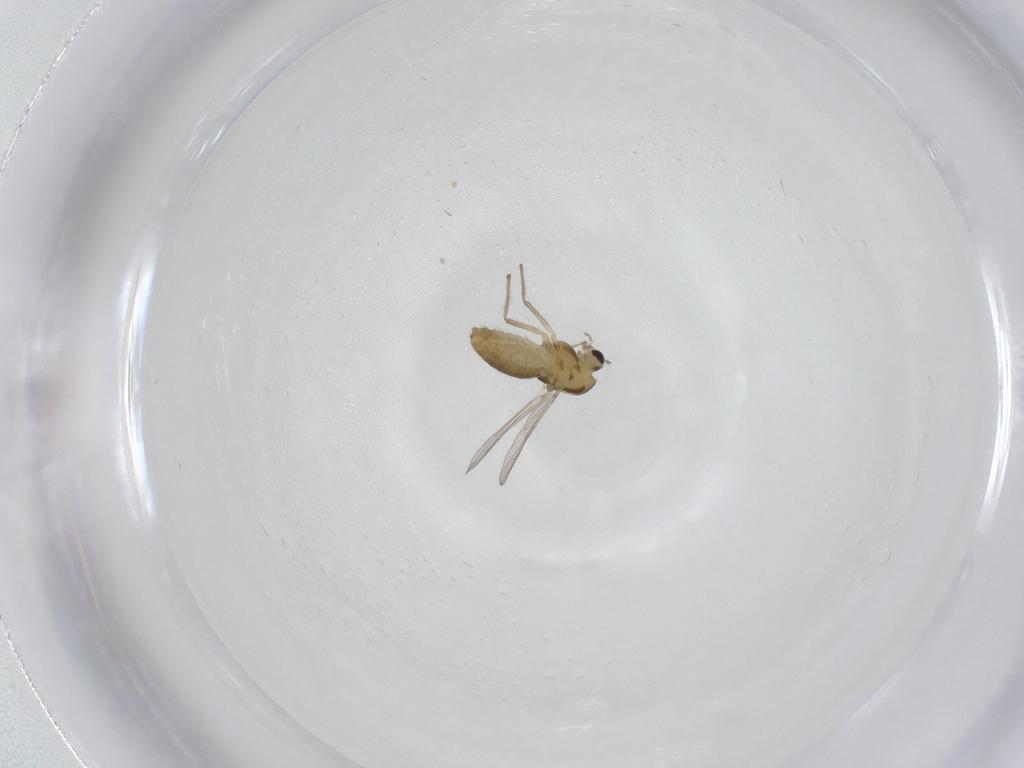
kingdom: Animalia
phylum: Arthropoda
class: Insecta
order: Diptera
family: Chironomidae
